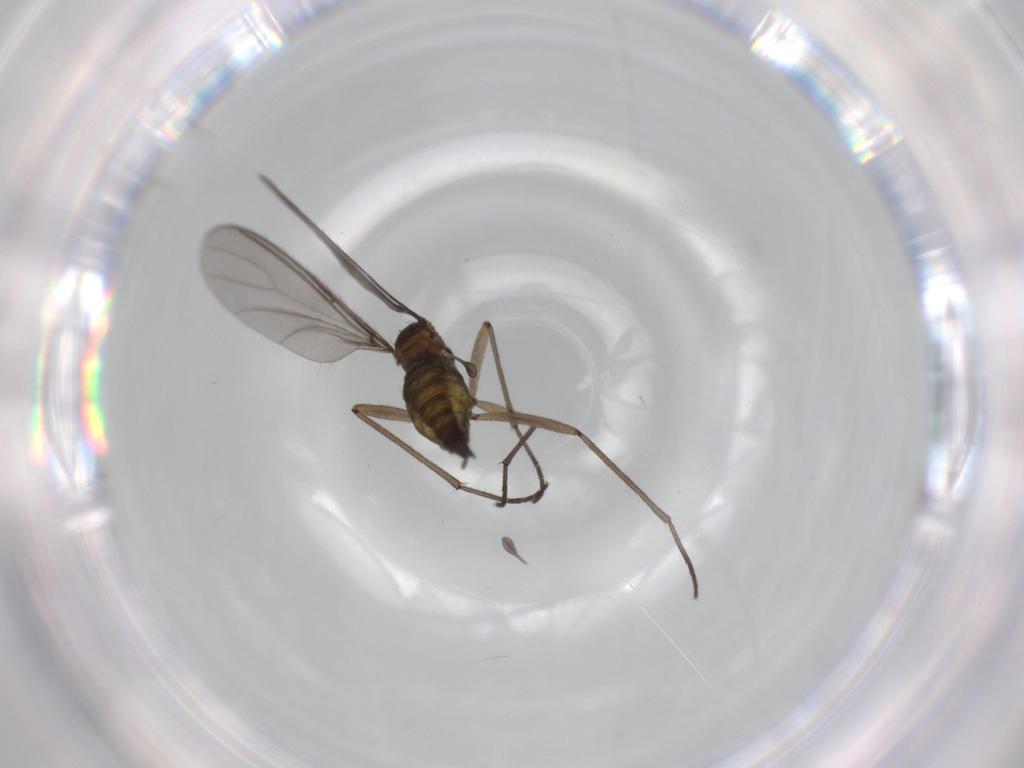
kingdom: Animalia
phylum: Arthropoda
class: Insecta
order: Diptera
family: Sciaridae
